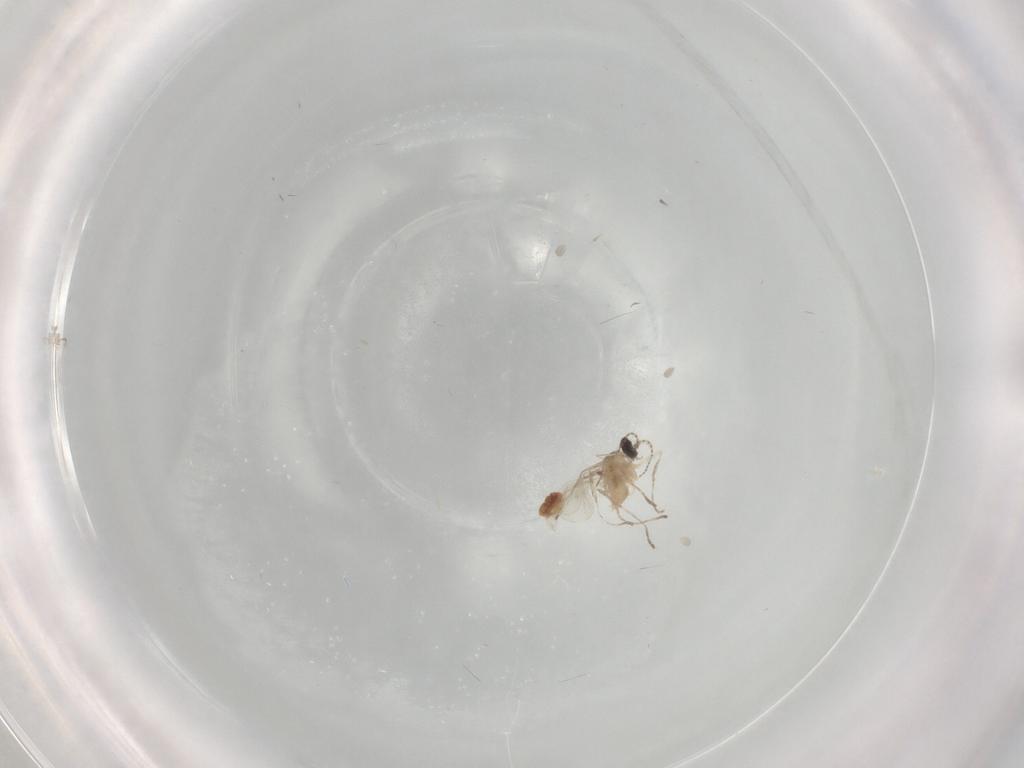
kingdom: Animalia
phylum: Arthropoda
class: Insecta
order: Diptera
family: Cecidomyiidae
